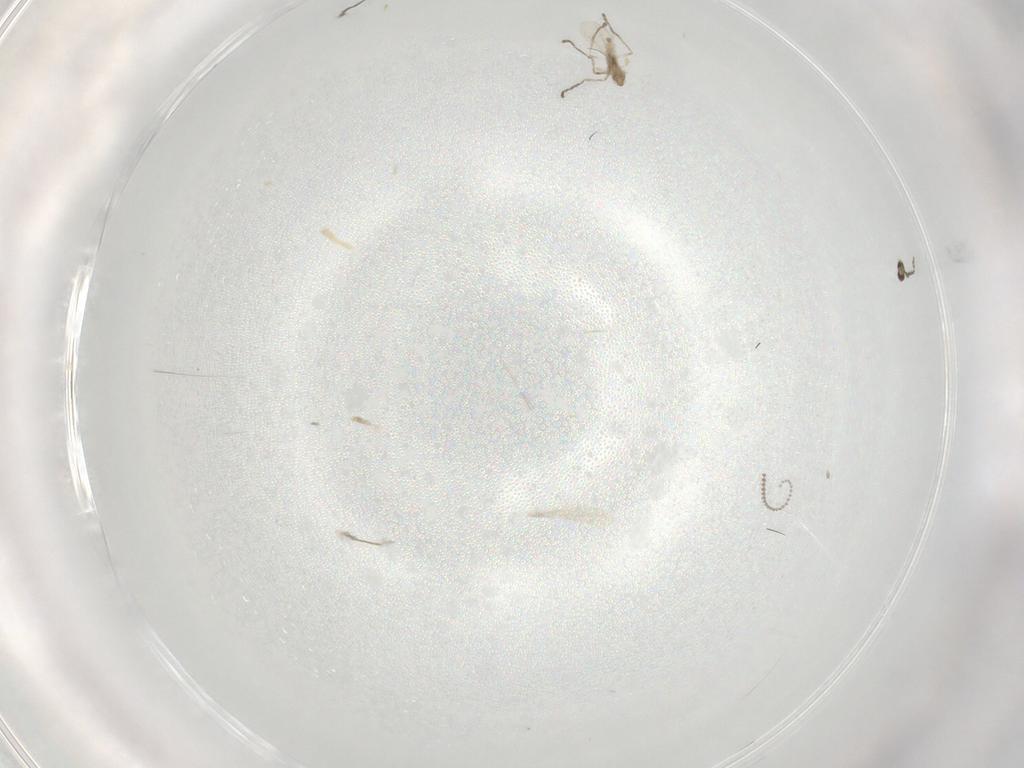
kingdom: Animalia
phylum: Arthropoda
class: Insecta
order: Diptera
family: Cecidomyiidae
